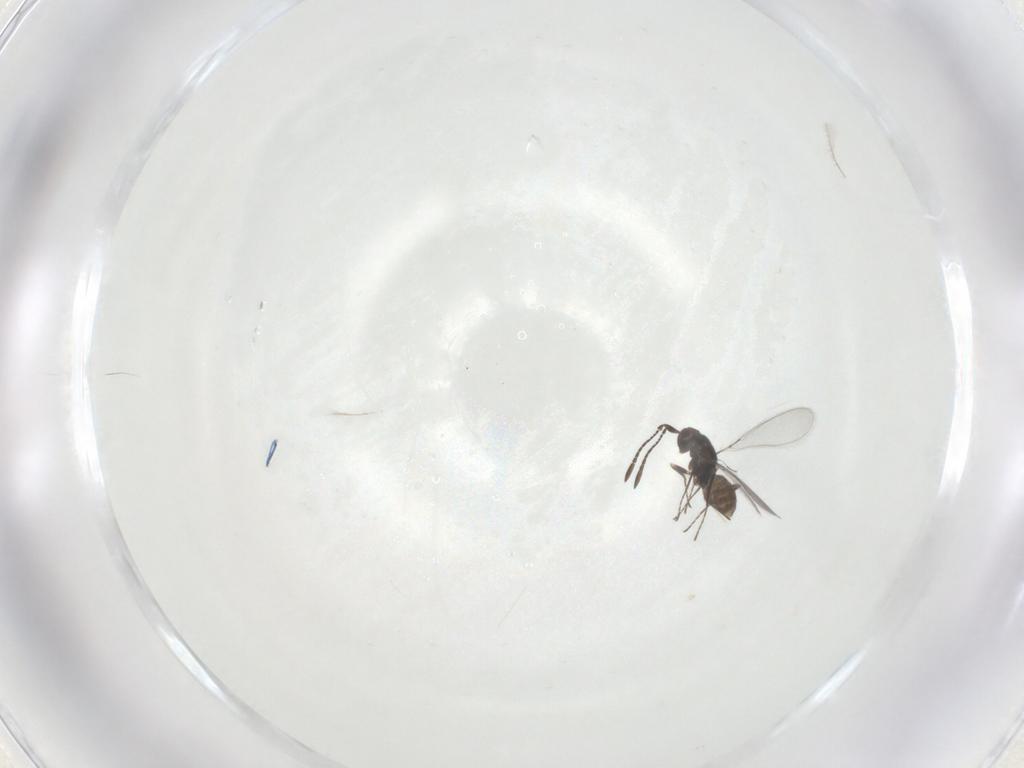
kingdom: Animalia
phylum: Arthropoda
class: Insecta
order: Hymenoptera
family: Mymaridae
